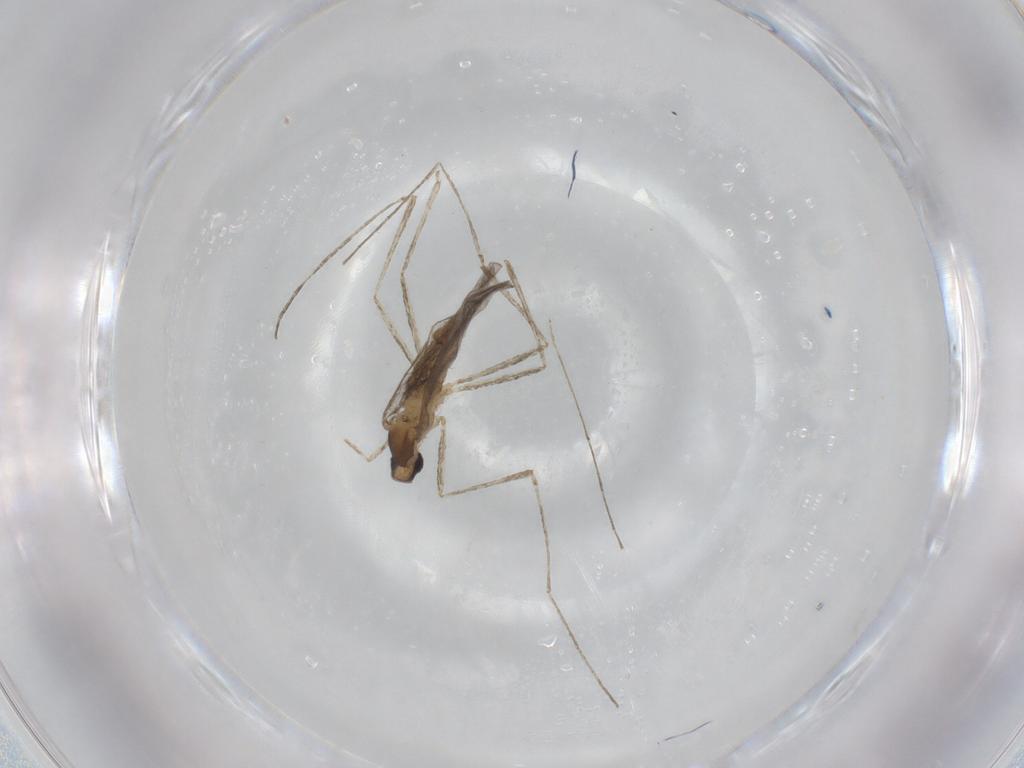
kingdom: Animalia
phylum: Arthropoda
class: Insecta
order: Diptera
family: Cecidomyiidae
